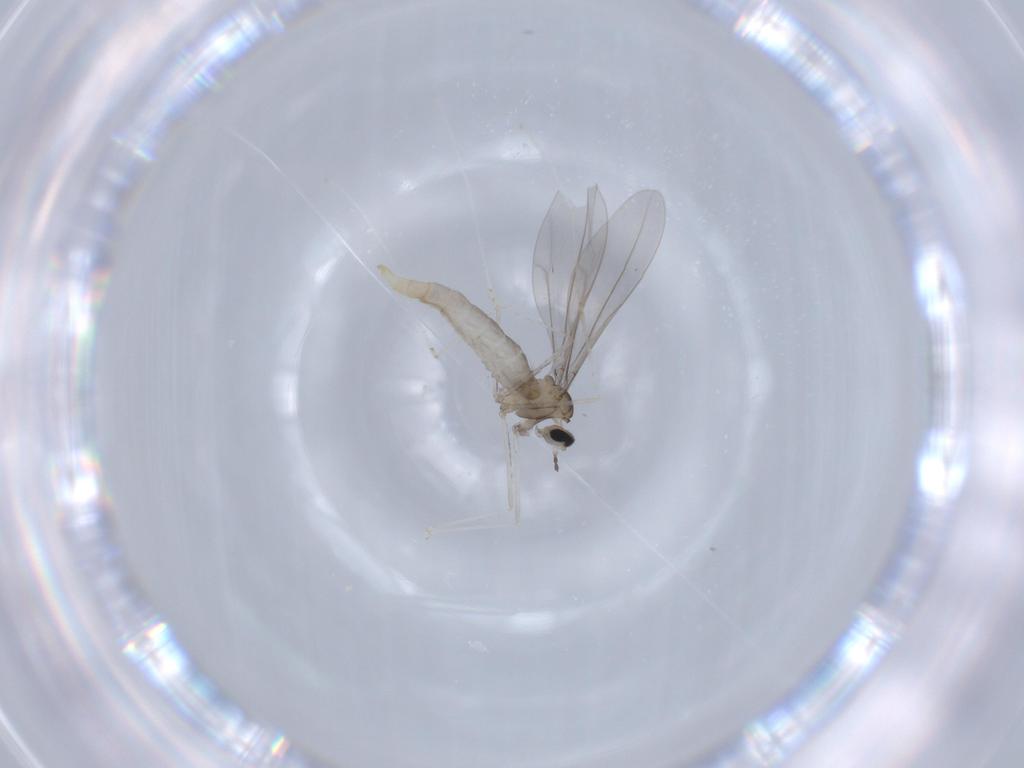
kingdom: Animalia
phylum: Arthropoda
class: Insecta
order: Diptera
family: Cecidomyiidae
